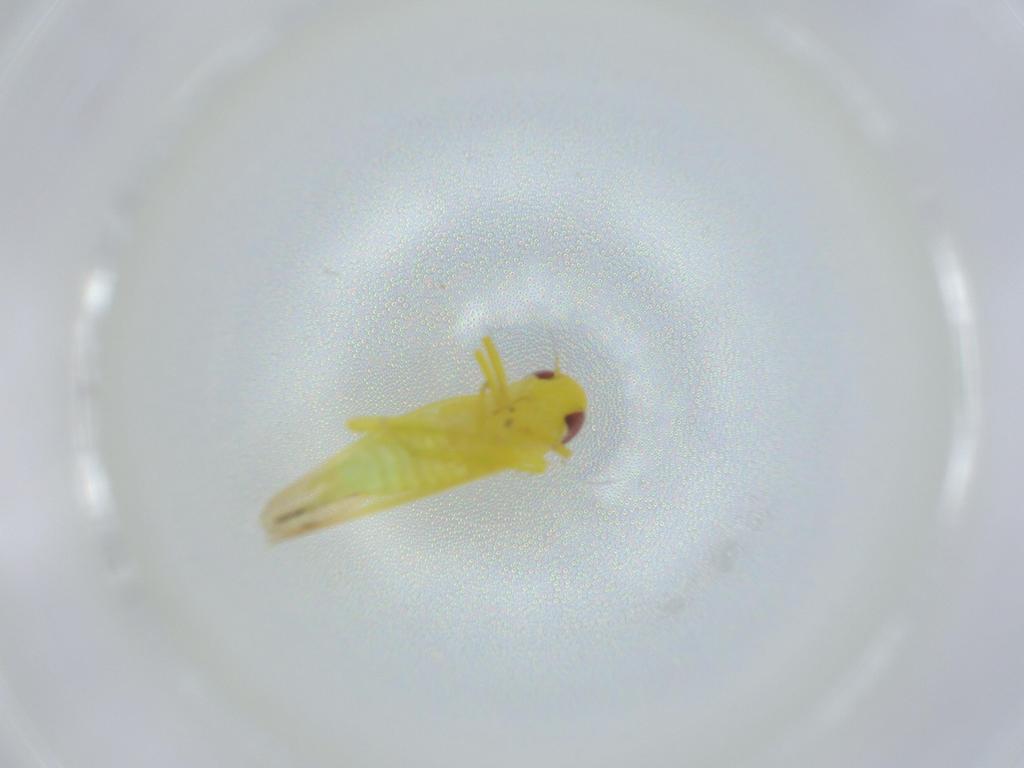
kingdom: Animalia
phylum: Arthropoda
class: Insecta
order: Hemiptera
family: Cicadellidae
